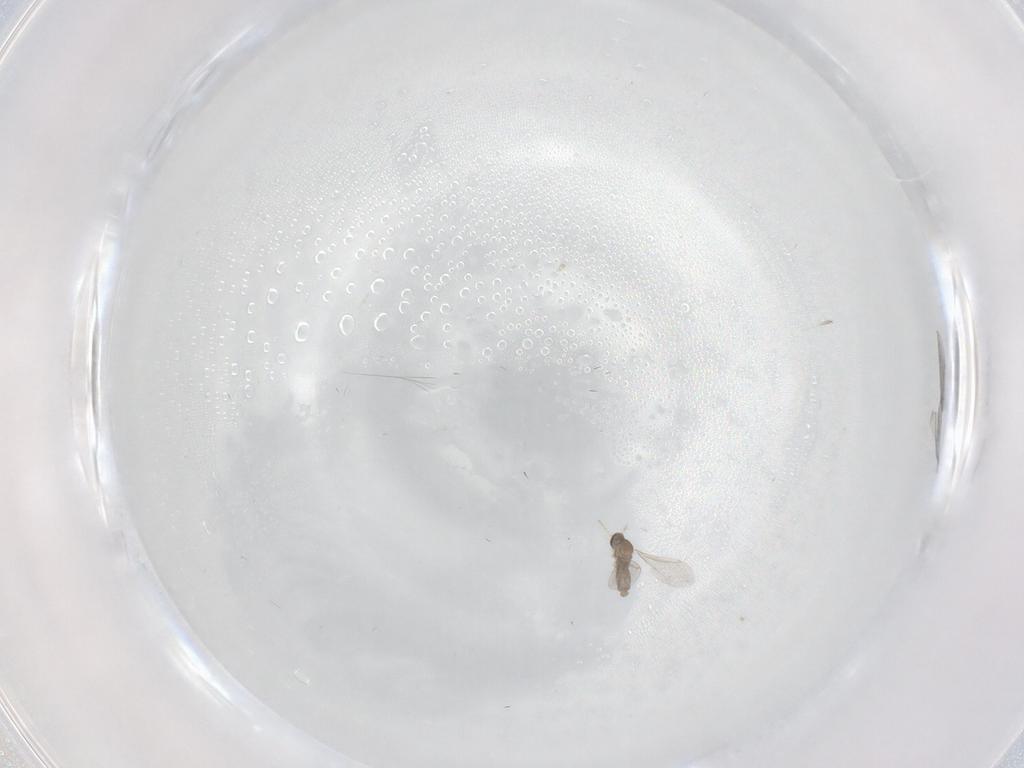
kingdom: Animalia
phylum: Arthropoda
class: Insecta
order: Diptera
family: Cecidomyiidae
